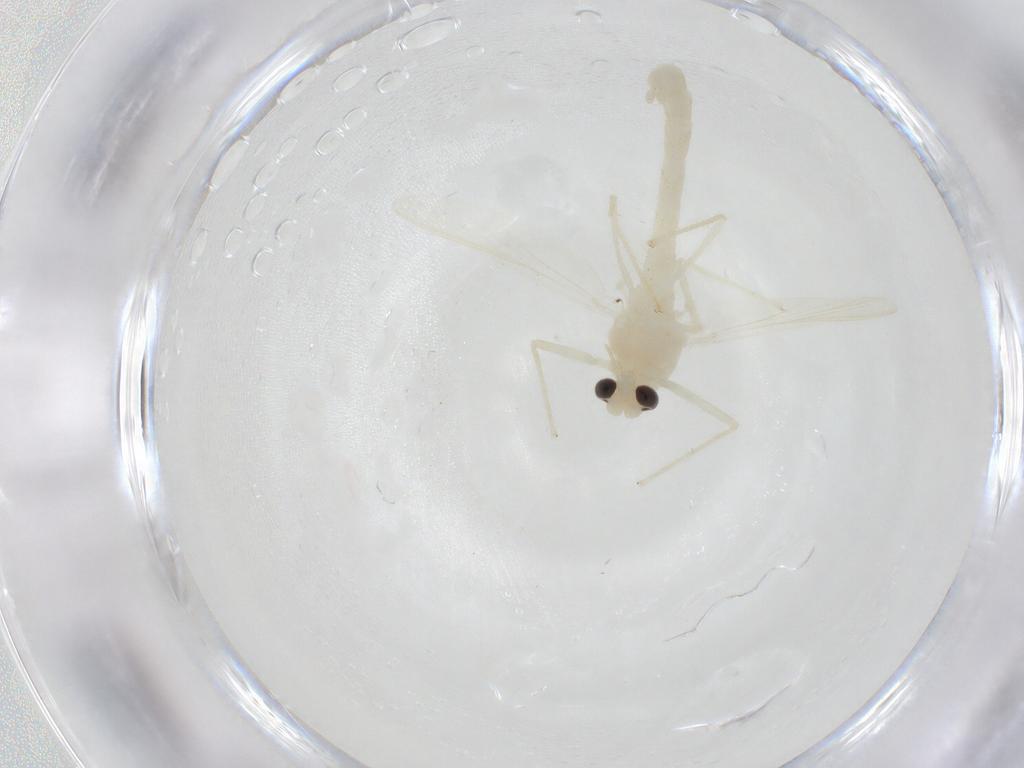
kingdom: Animalia
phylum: Arthropoda
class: Insecta
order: Diptera
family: Chironomidae
